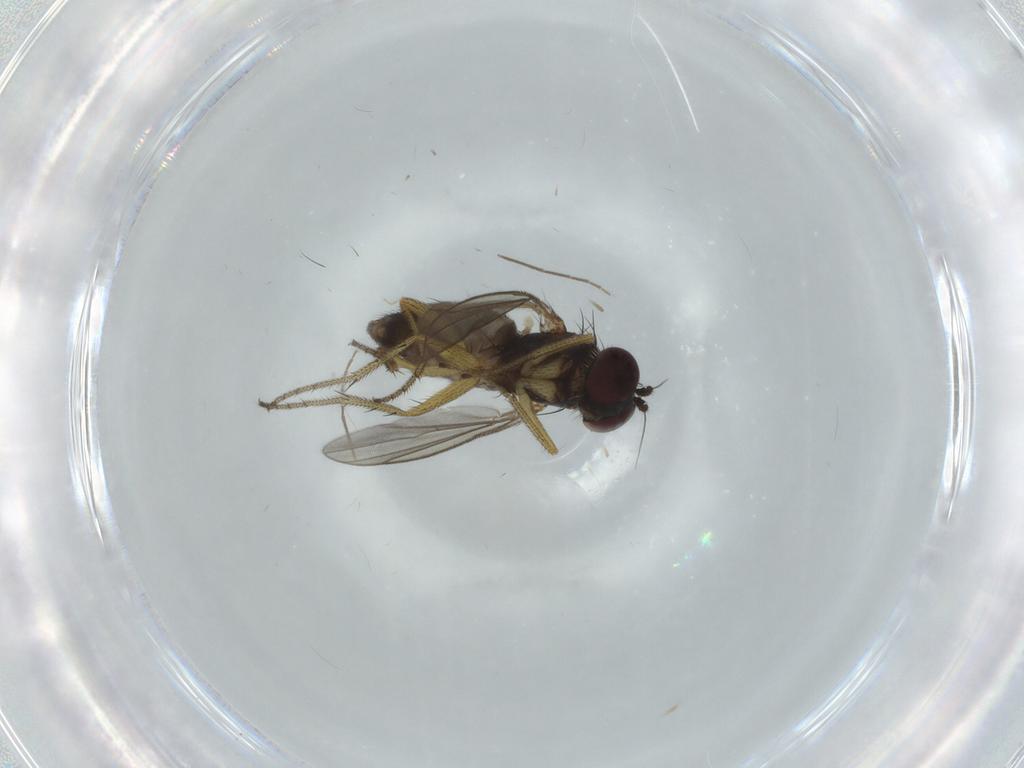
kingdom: Animalia
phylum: Arthropoda
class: Insecta
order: Diptera
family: Dolichopodidae
